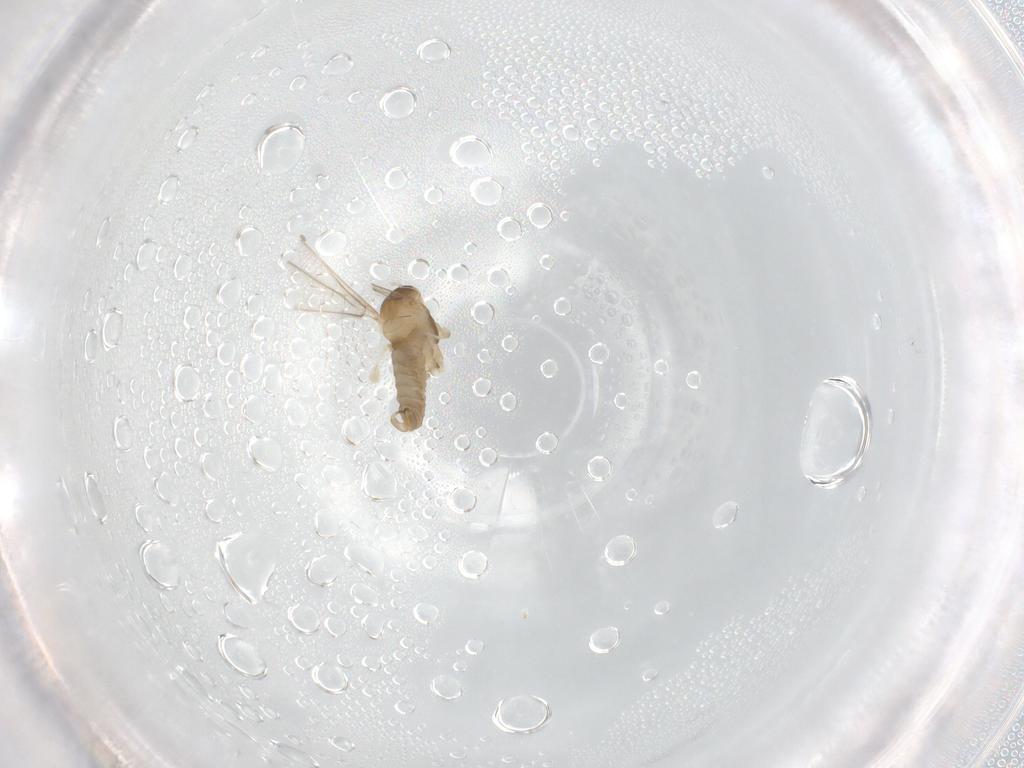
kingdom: Animalia
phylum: Arthropoda
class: Insecta
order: Diptera
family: Cecidomyiidae
